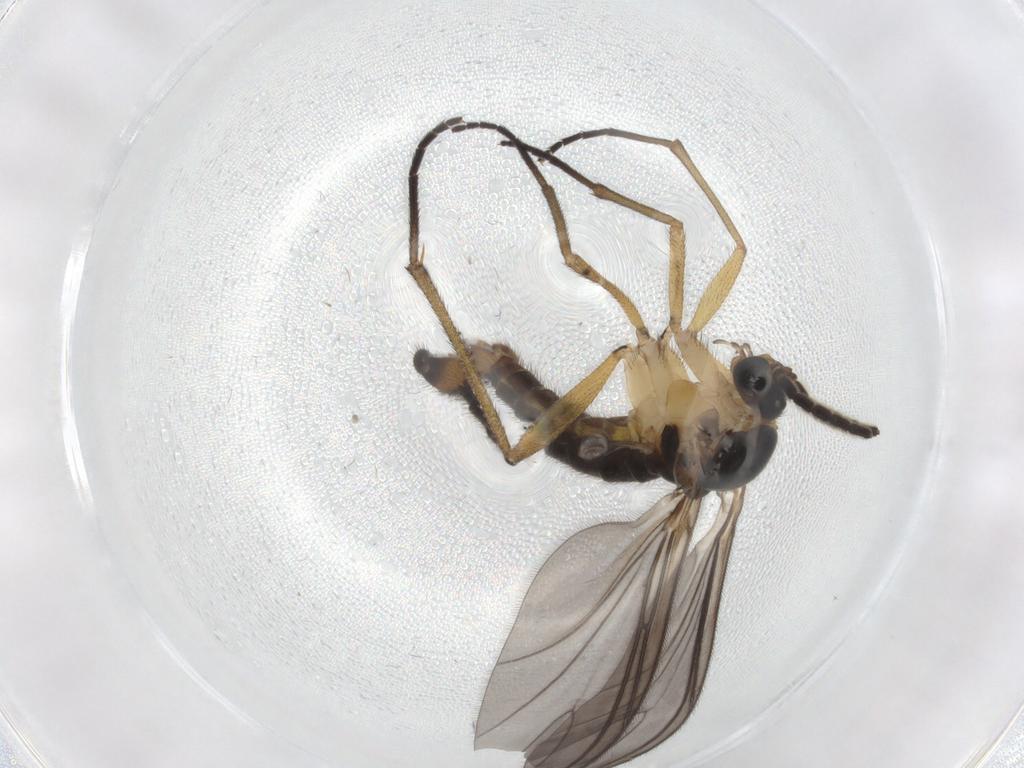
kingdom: Animalia
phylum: Arthropoda
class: Insecta
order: Diptera
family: Sciaridae
